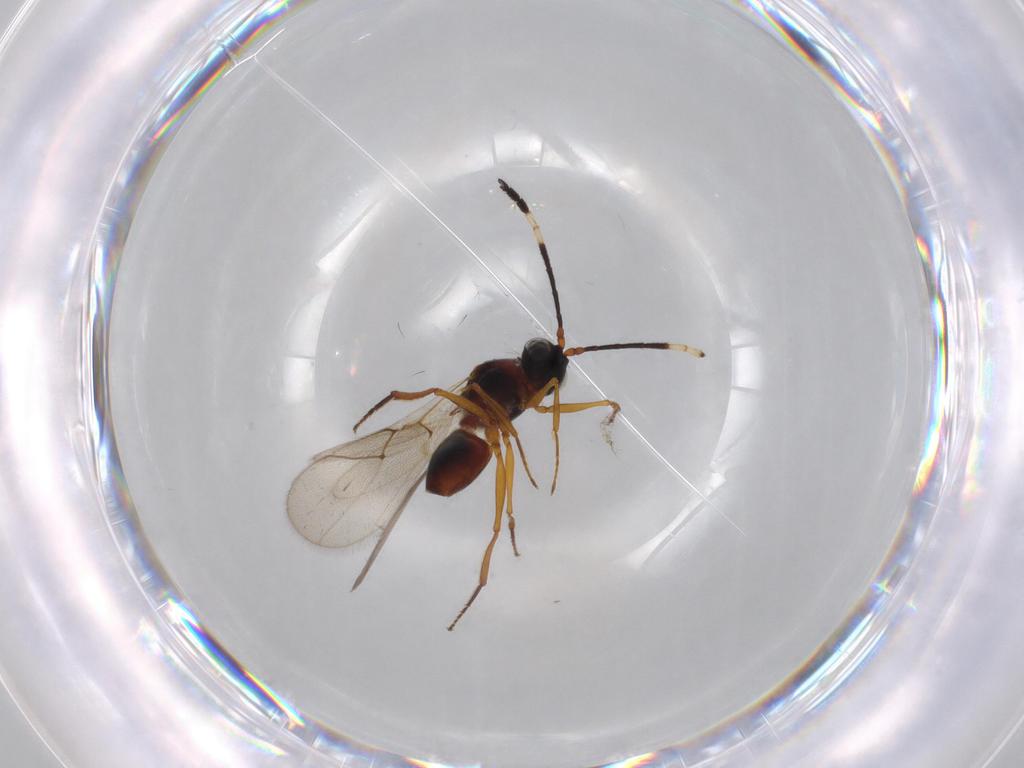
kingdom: Animalia
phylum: Arthropoda
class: Insecta
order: Hymenoptera
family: Figitidae
